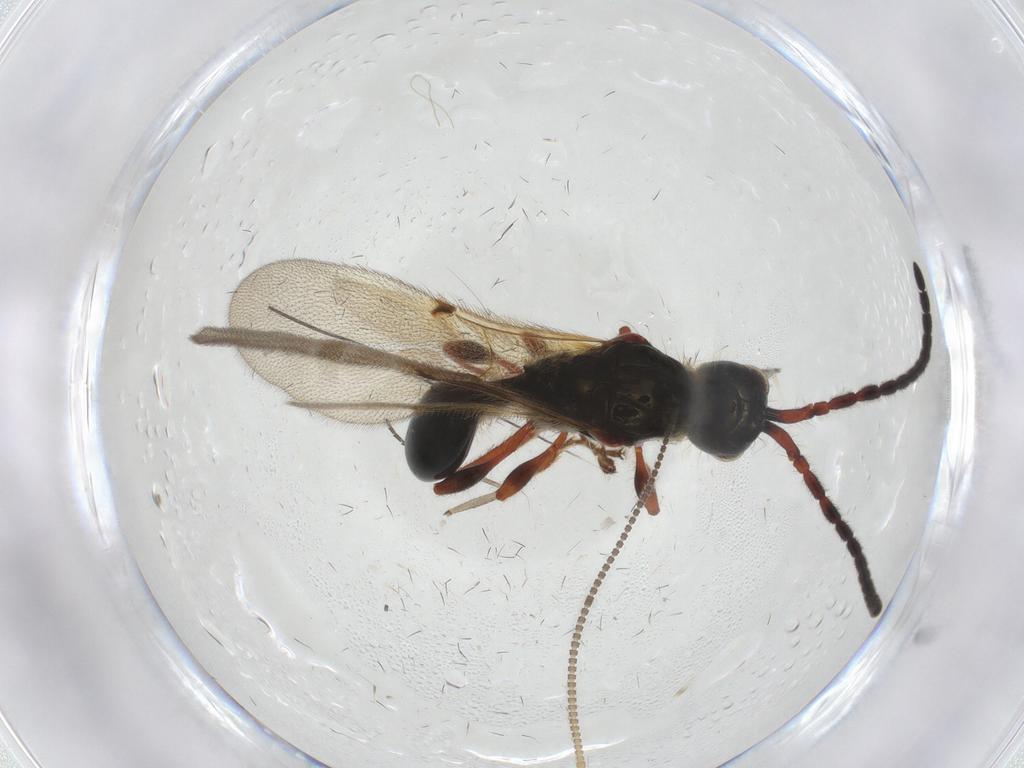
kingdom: Animalia
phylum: Arthropoda
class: Insecta
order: Hymenoptera
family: Diapriidae
